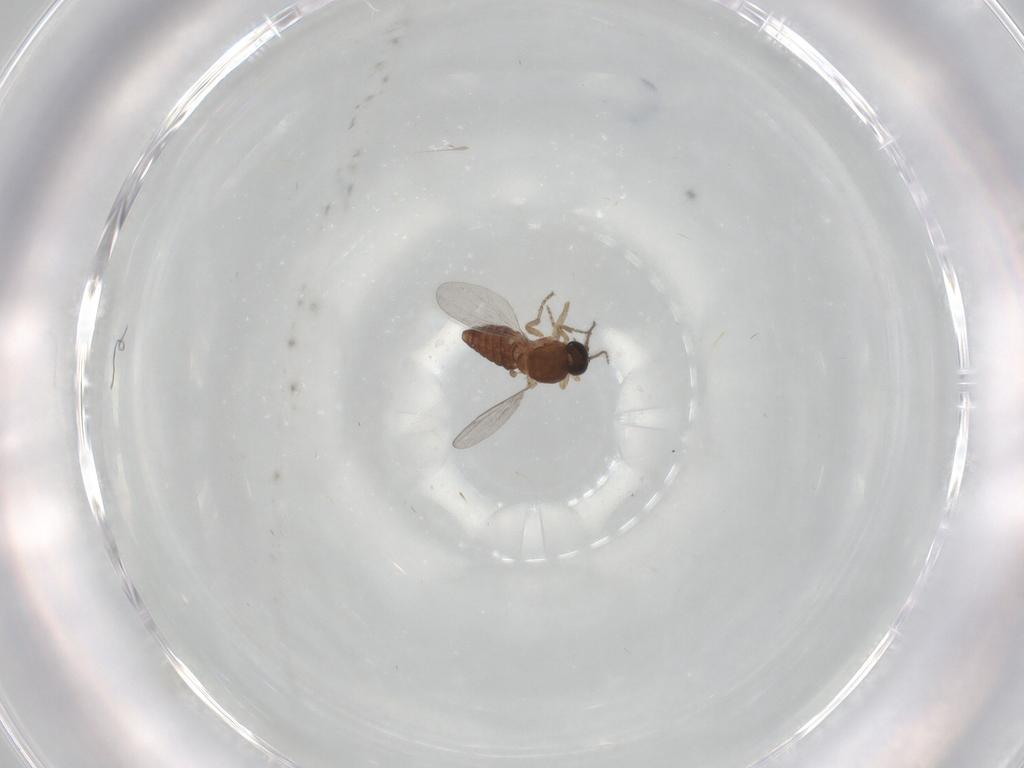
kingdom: Animalia
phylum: Arthropoda
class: Insecta
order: Diptera
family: Ceratopogonidae
